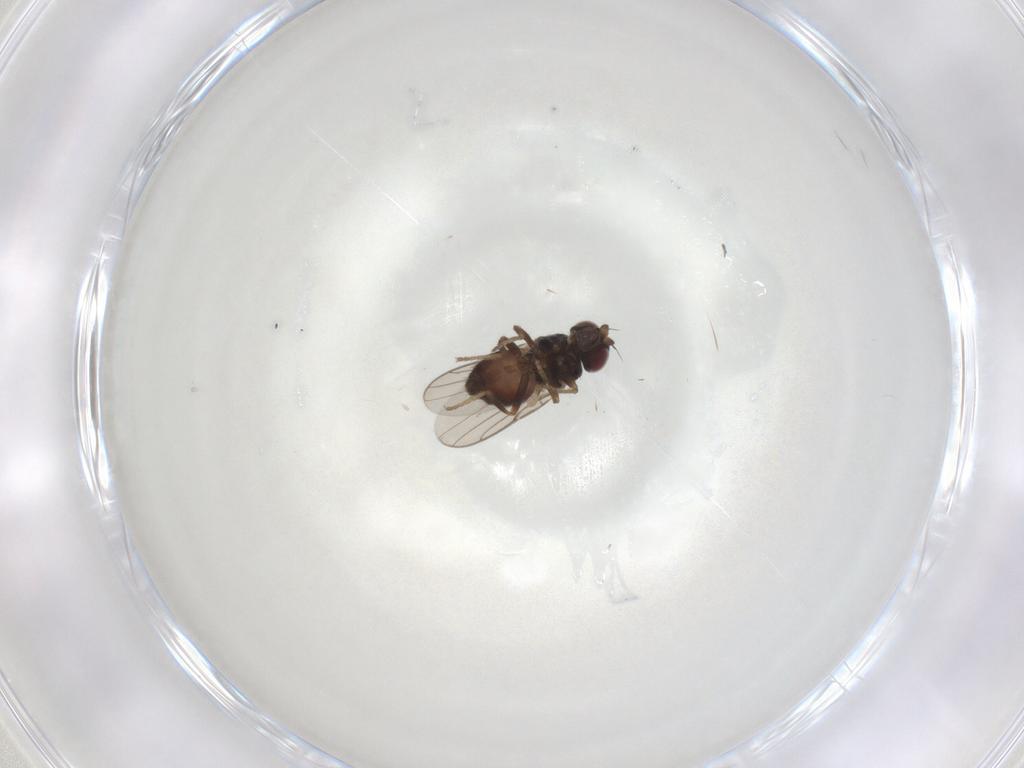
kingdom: Animalia
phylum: Arthropoda
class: Insecta
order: Diptera
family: Chloropidae
